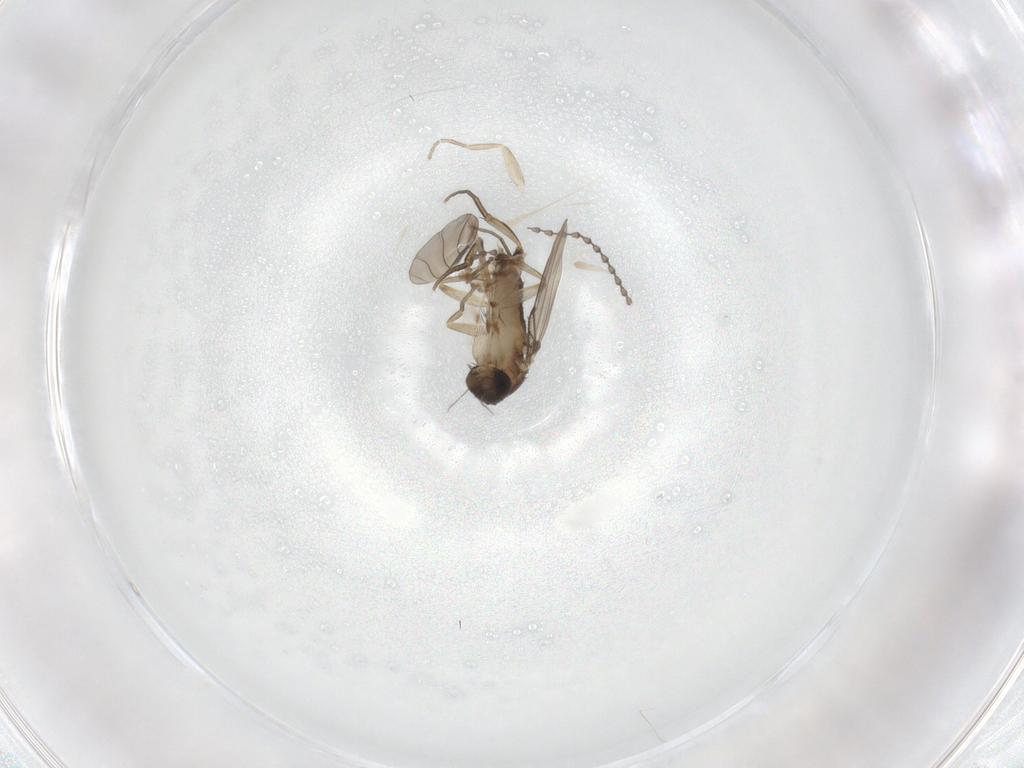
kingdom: Animalia
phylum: Arthropoda
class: Insecta
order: Diptera
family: Phoridae
